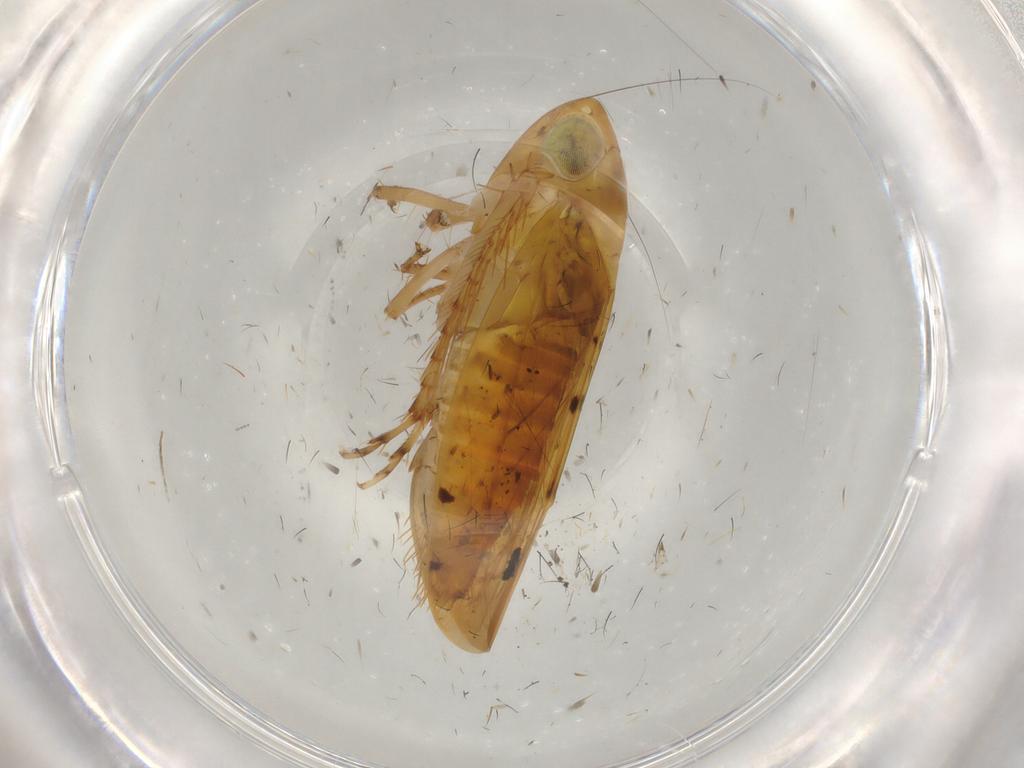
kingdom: Animalia
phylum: Arthropoda
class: Insecta
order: Hemiptera
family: Cicadellidae
